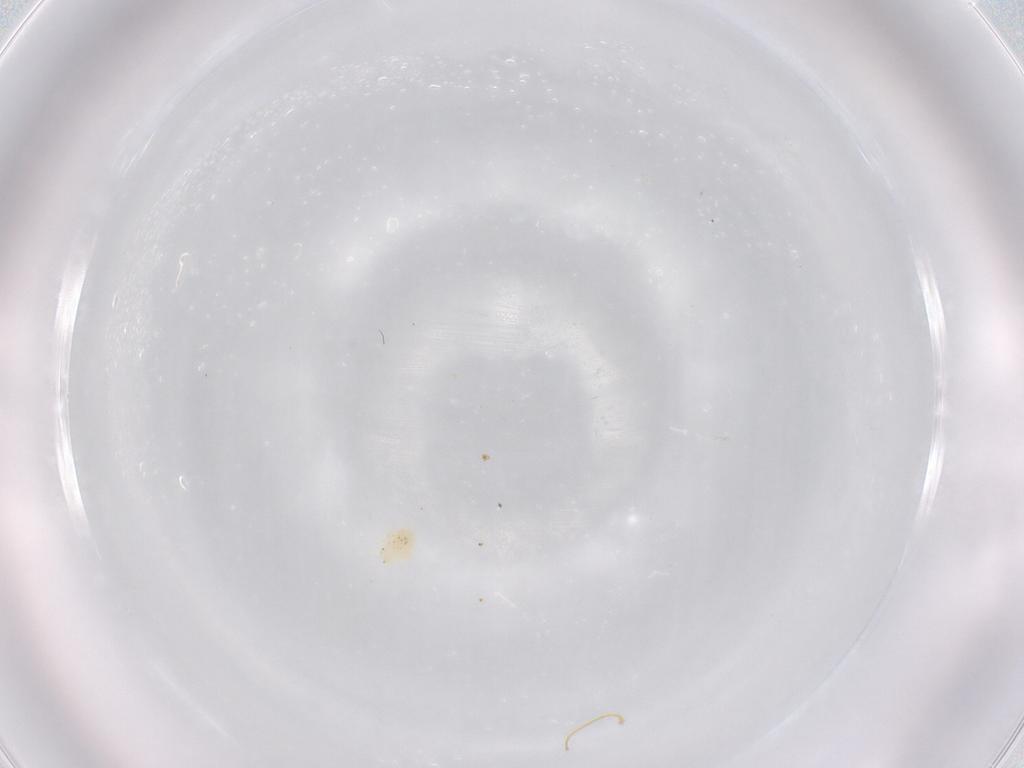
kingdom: Animalia
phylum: Arthropoda
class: Arachnida
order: Trombidiformes
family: Bdellidae
